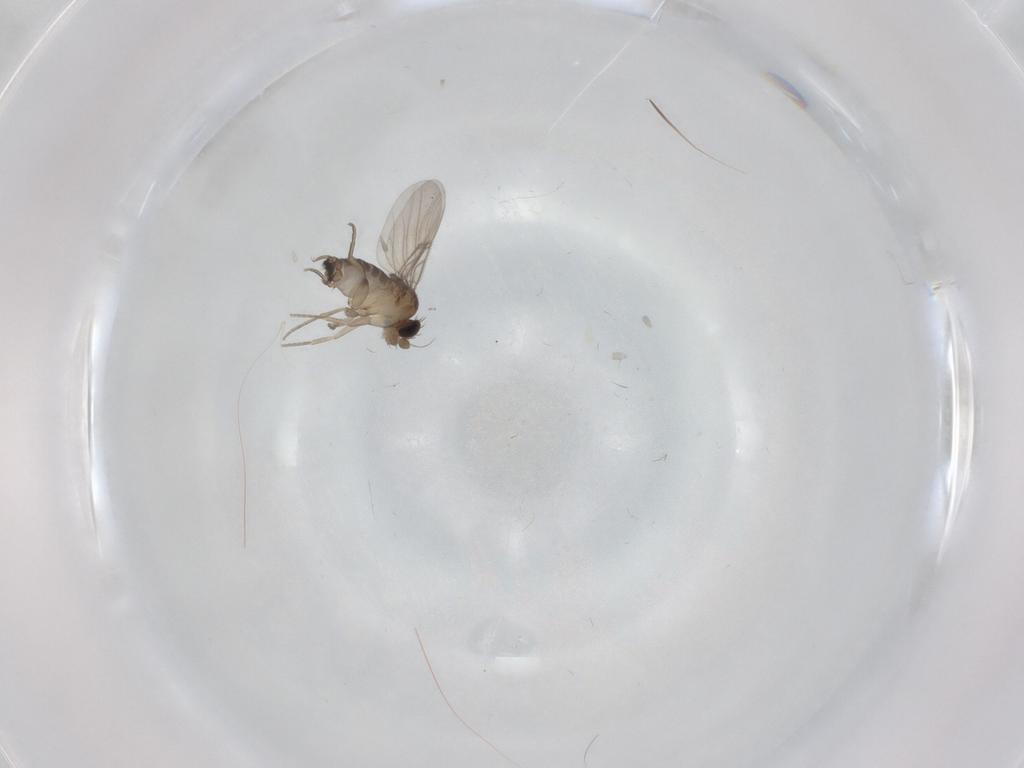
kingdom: Animalia
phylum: Arthropoda
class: Insecta
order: Diptera
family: Phoridae
